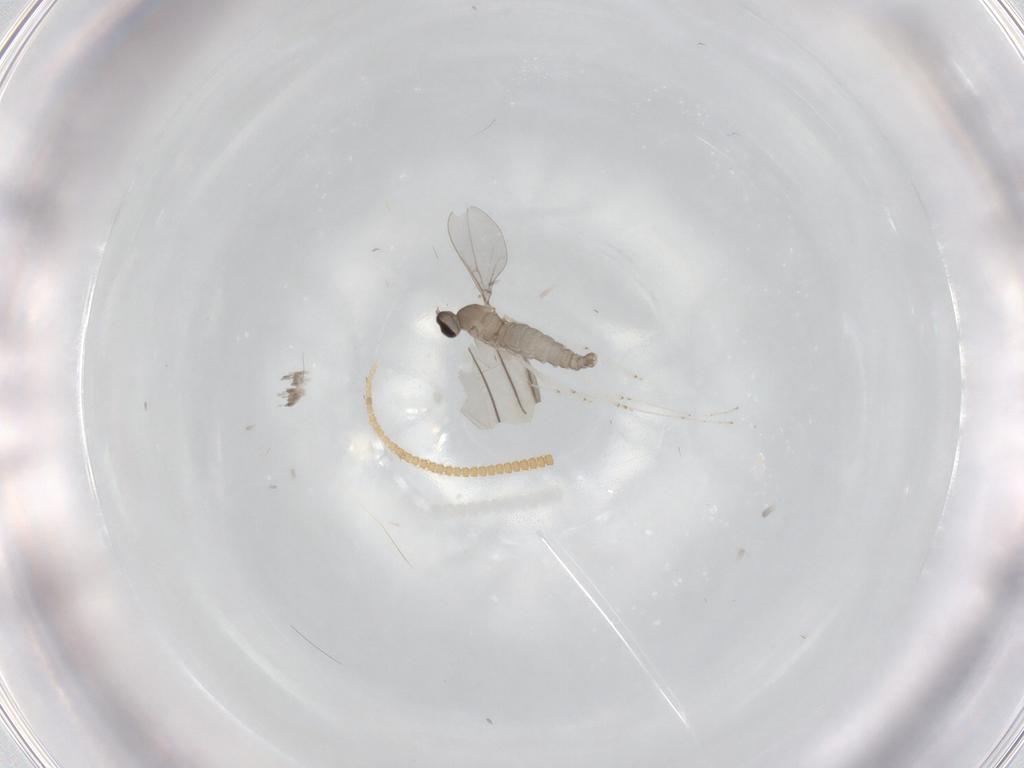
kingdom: Animalia
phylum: Arthropoda
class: Insecta
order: Diptera
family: Cecidomyiidae
